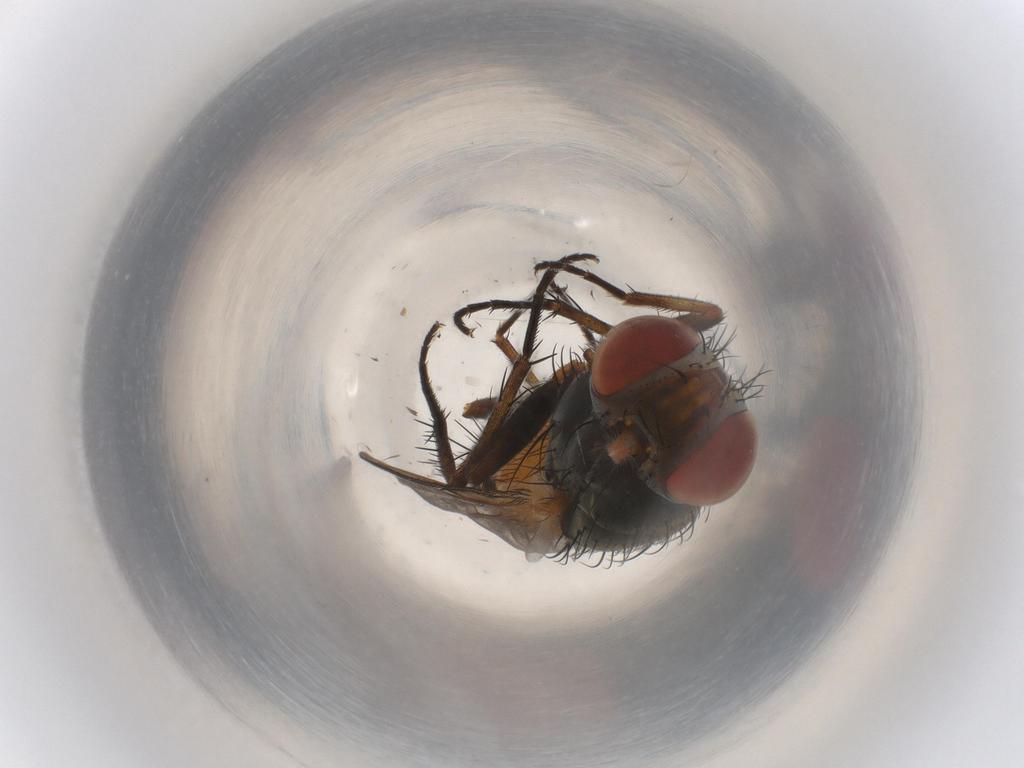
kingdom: Animalia
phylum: Arthropoda
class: Insecta
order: Diptera
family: Sarcophagidae
